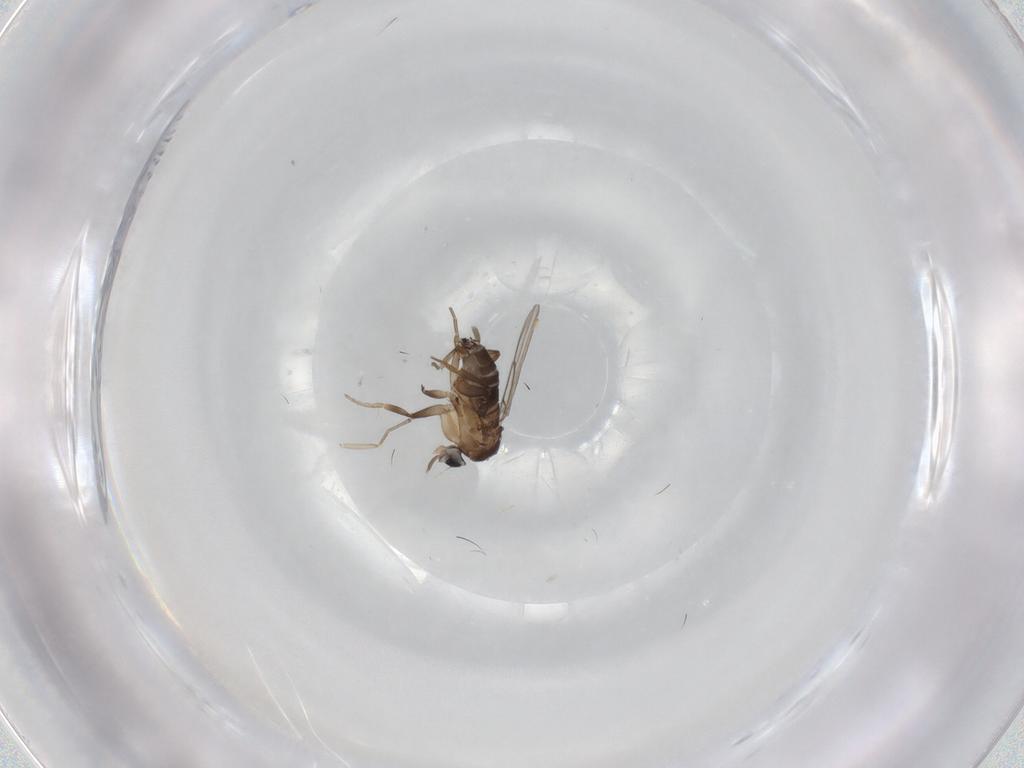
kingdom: Animalia
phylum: Arthropoda
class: Insecta
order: Diptera
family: Phoridae
